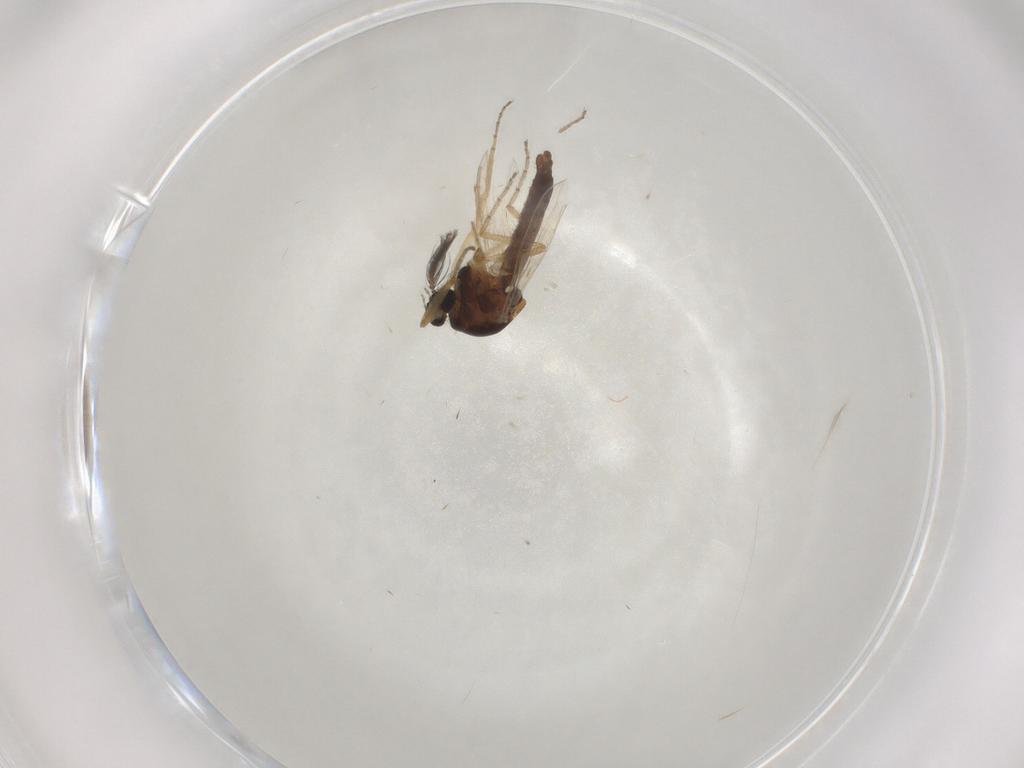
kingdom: Animalia
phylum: Arthropoda
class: Insecta
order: Diptera
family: Ceratopogonidae
